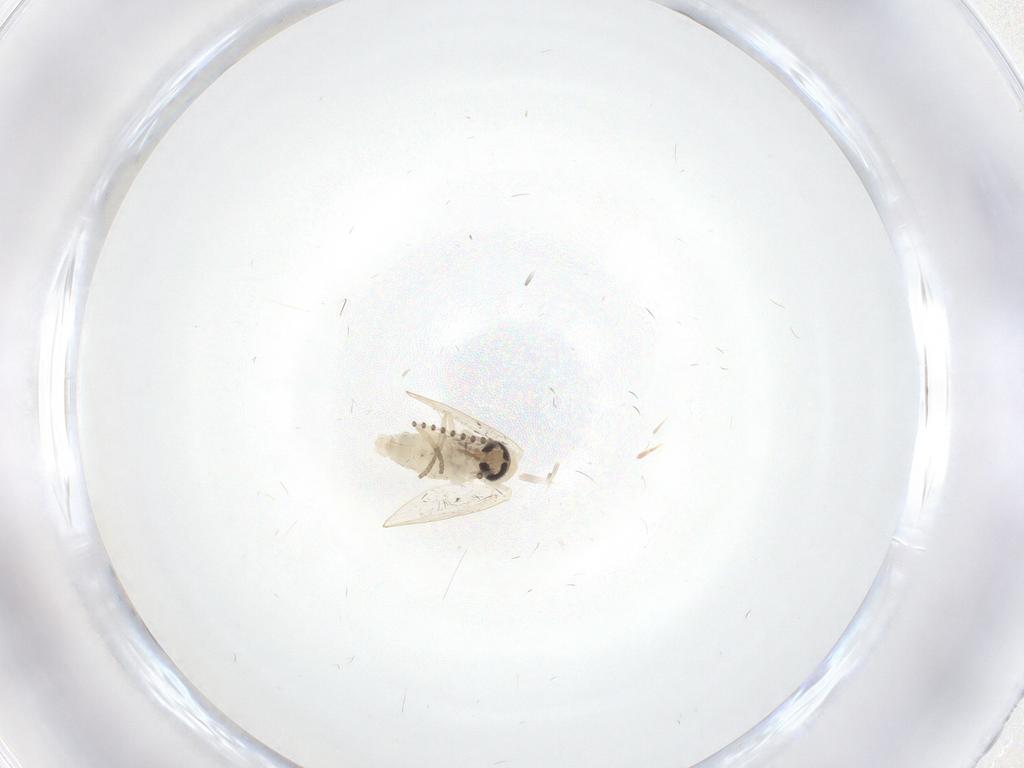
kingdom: Animalia
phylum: Arthropoda
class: Insecta
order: Diptera
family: Psychodidae
